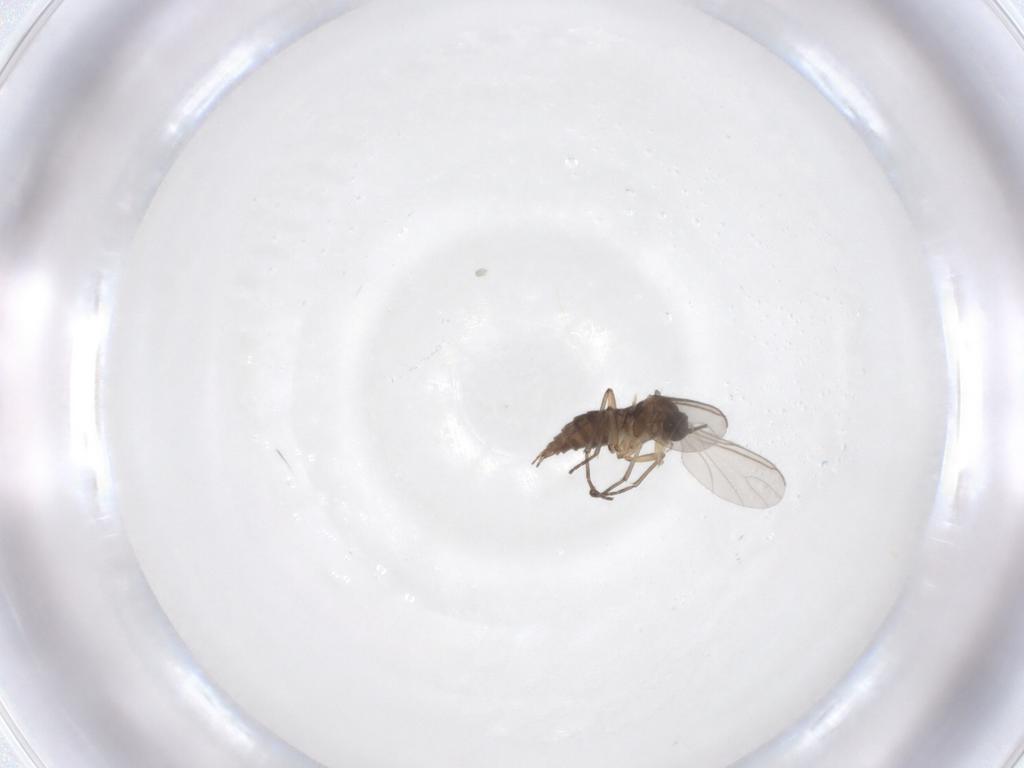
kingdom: Animalia
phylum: Arthropoda
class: Insecta
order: Diptera
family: Sciaridae
